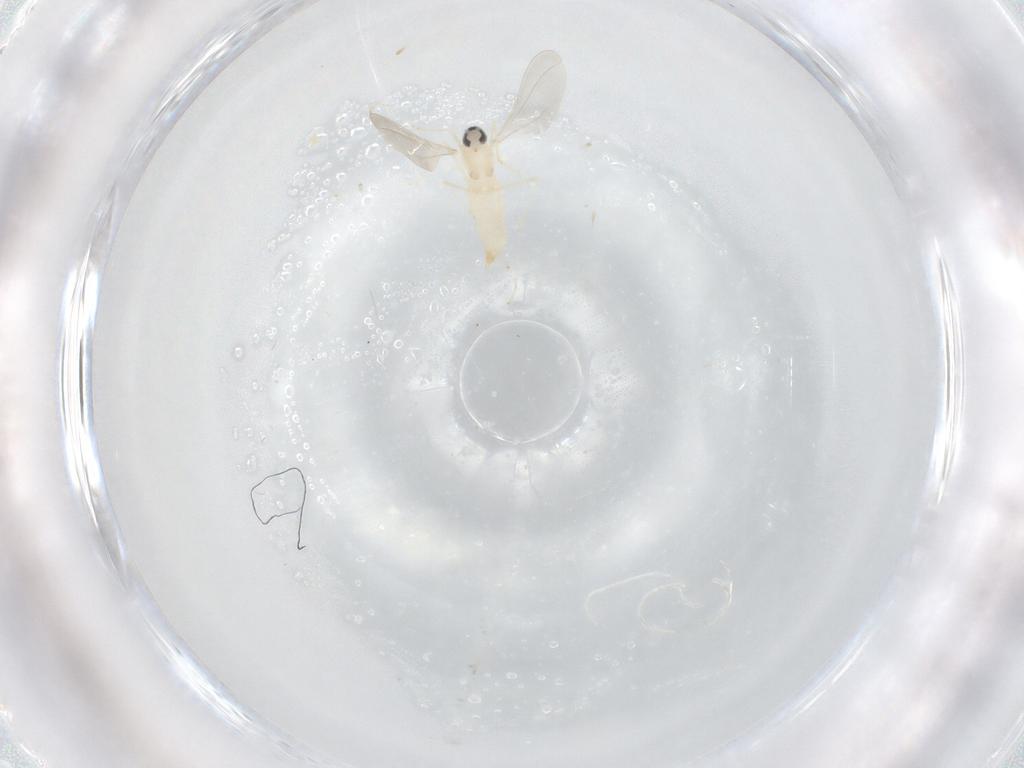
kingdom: Animalia
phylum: Arthropoda
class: Insecta
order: Diptera
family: Cecidomyiidae
